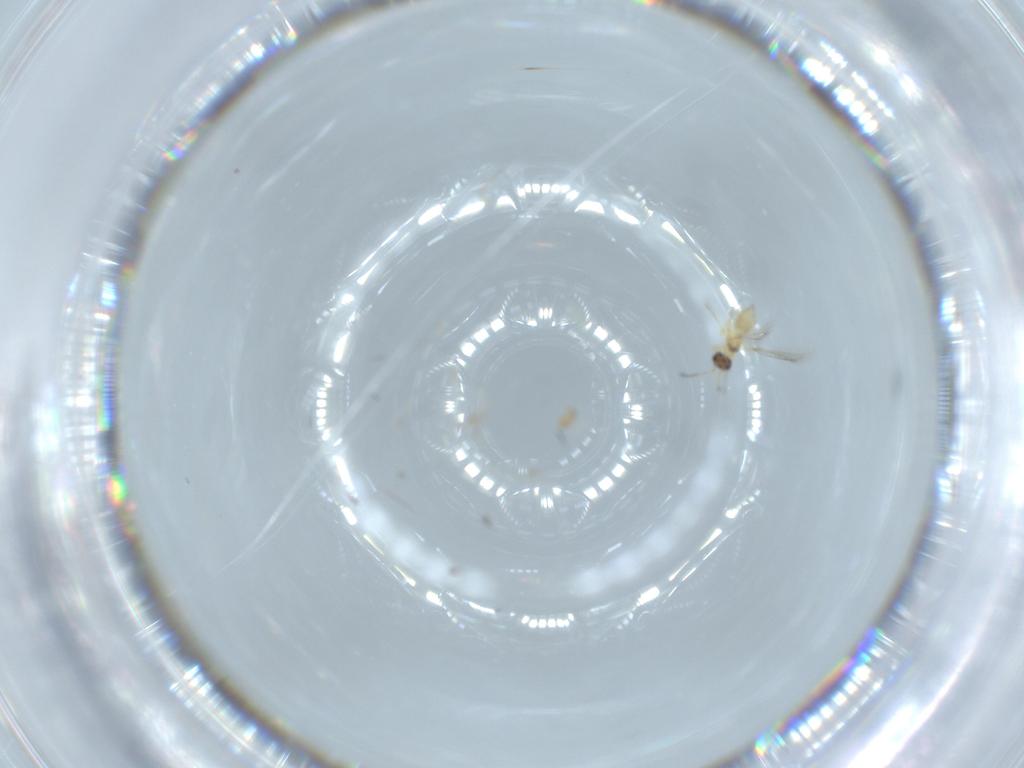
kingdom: Animalia
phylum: Arthropoda
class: Insecta
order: Hymenoptera
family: Mymaridae
